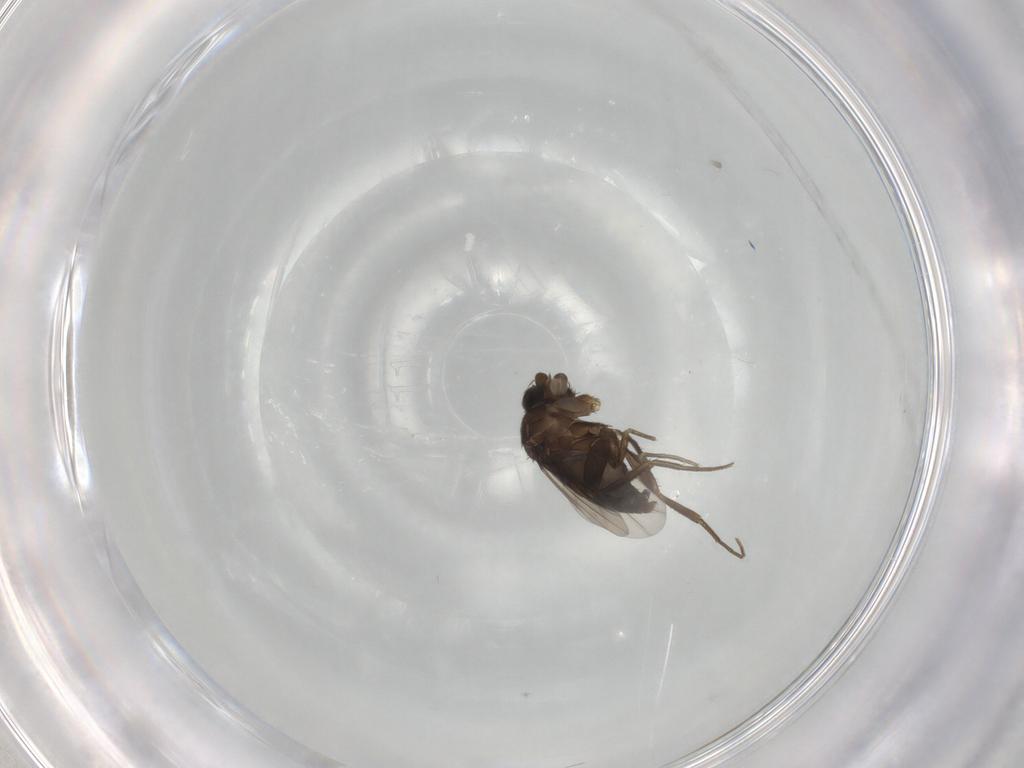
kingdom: Animalia
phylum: Arthropoda
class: Insecta
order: Diptera
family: Phoridae
